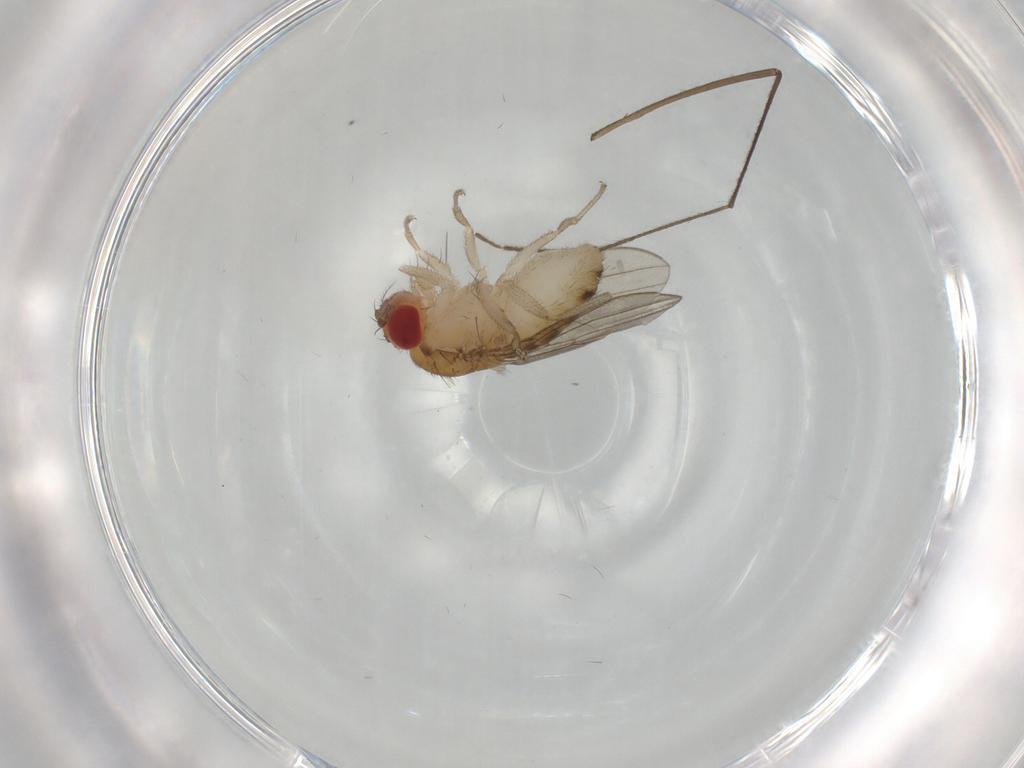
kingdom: Animalia
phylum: Arthropoda
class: Insecta
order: Diptera
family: Drosophilidae
